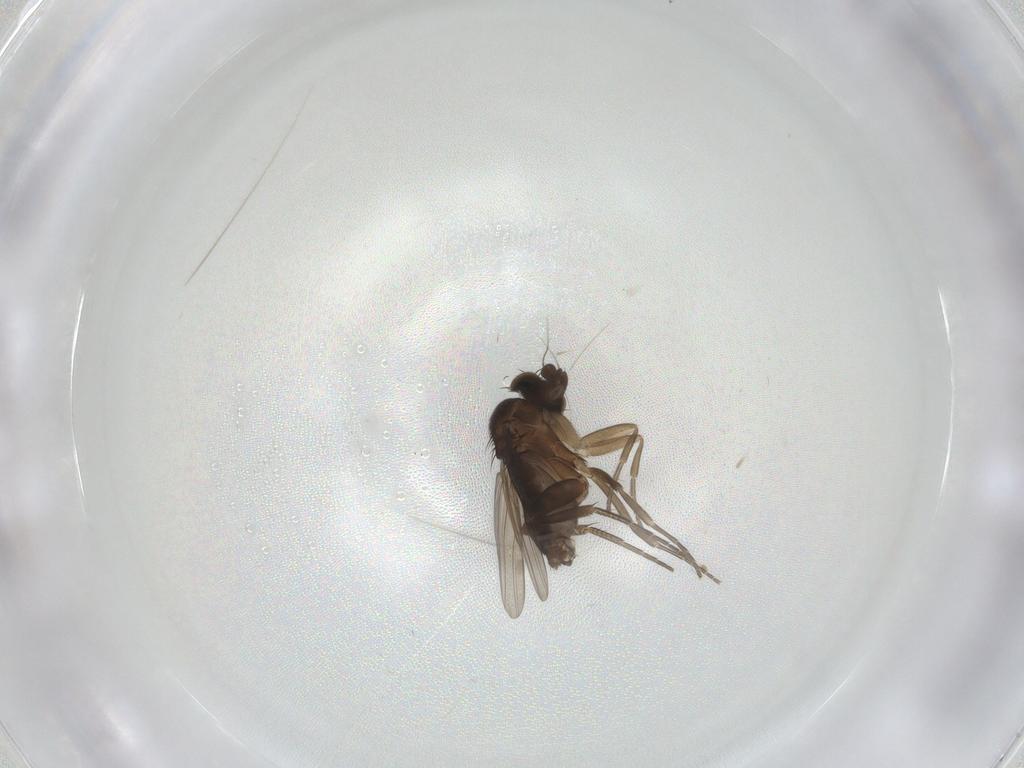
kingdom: Animalia
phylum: Arthropoda
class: Insecta
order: Diptera
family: Phoridae
